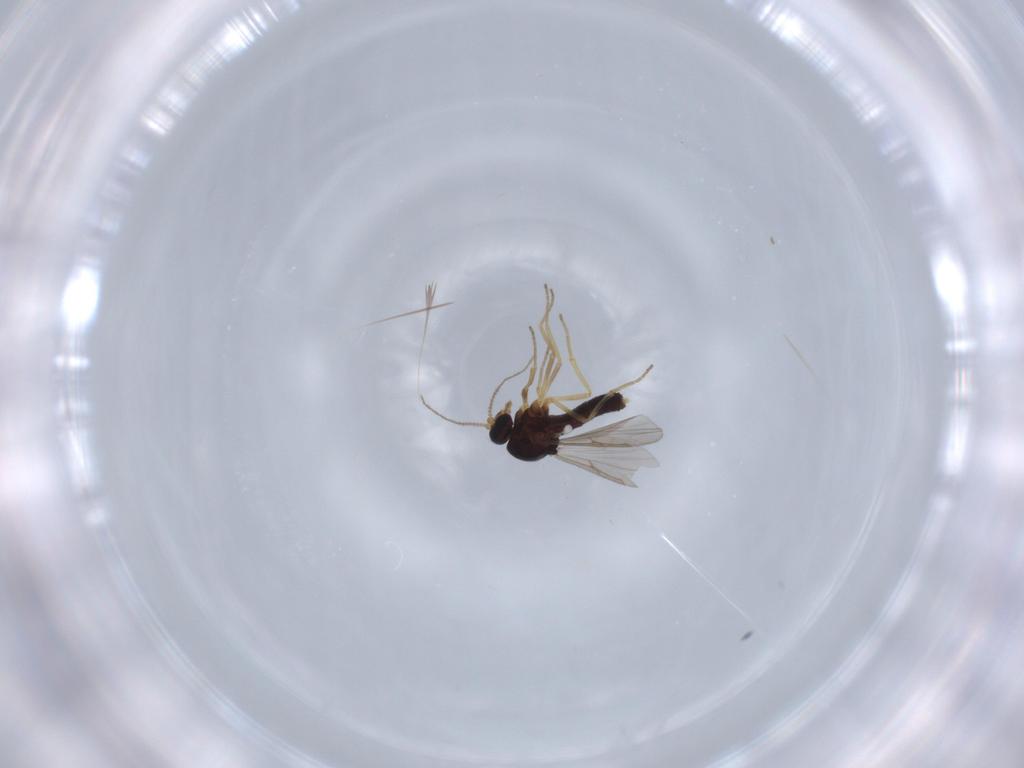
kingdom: Animalia
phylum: Arthropoda
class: Insecta
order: Diptera
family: Ceratopogonidae
